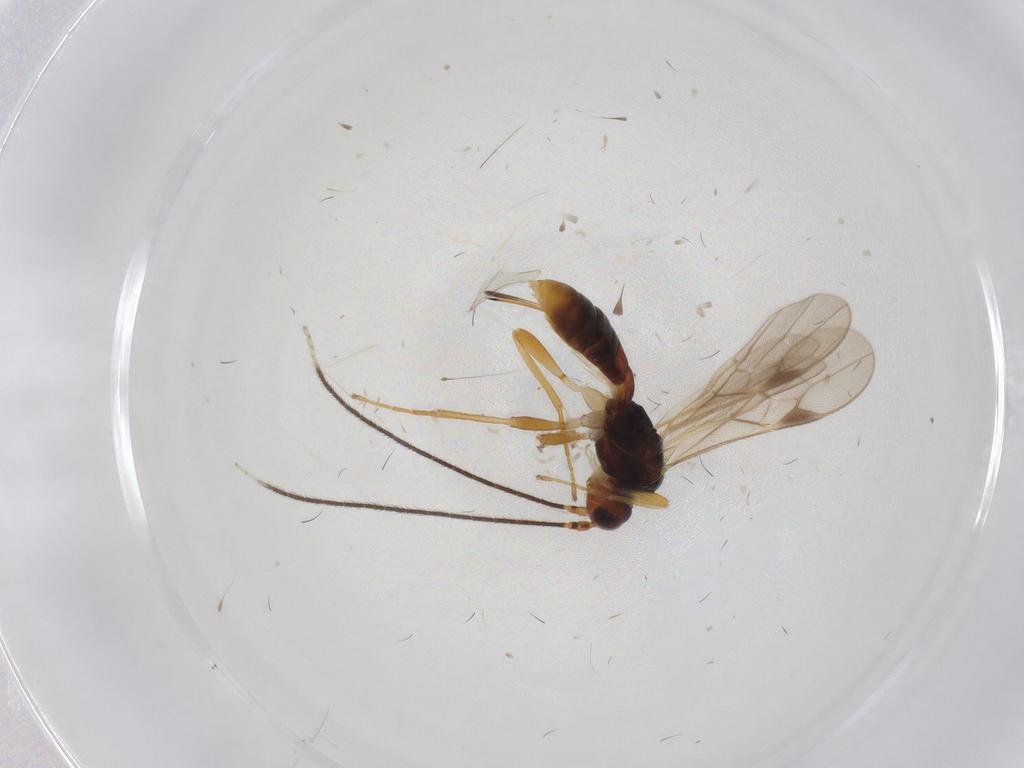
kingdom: Animalia
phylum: Arthropoda
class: Insecta
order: Hymenoptera
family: Braconidae
